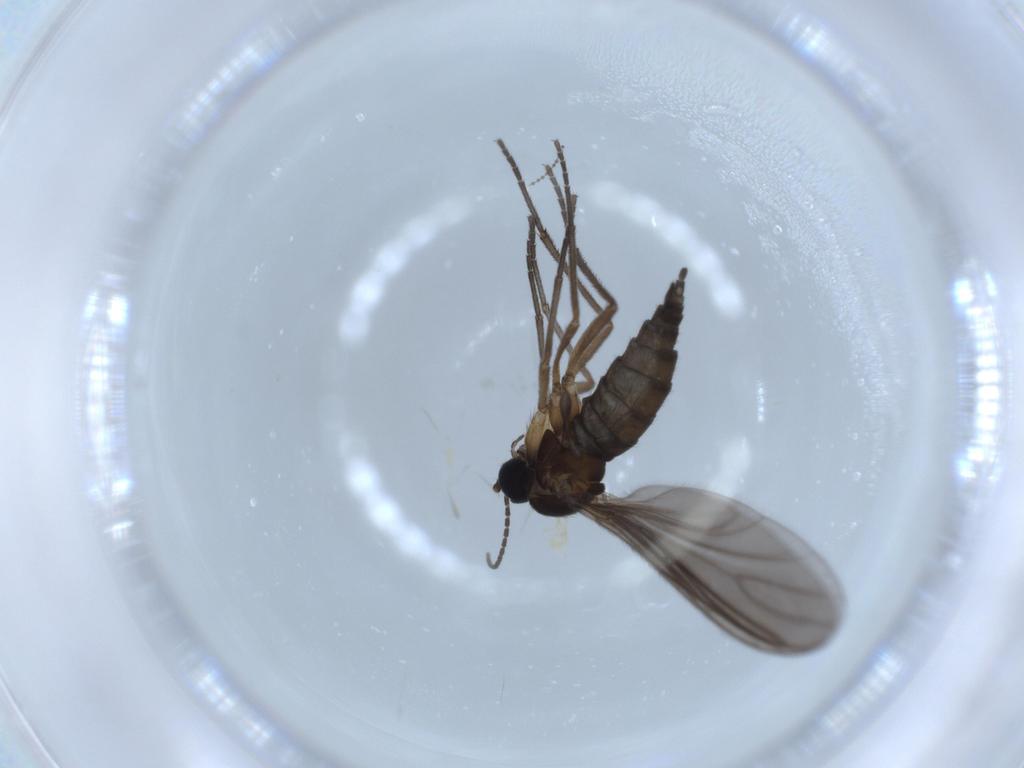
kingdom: Animalia
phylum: Arthropoda
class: Insecta
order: Diptera
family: Sciaridae
